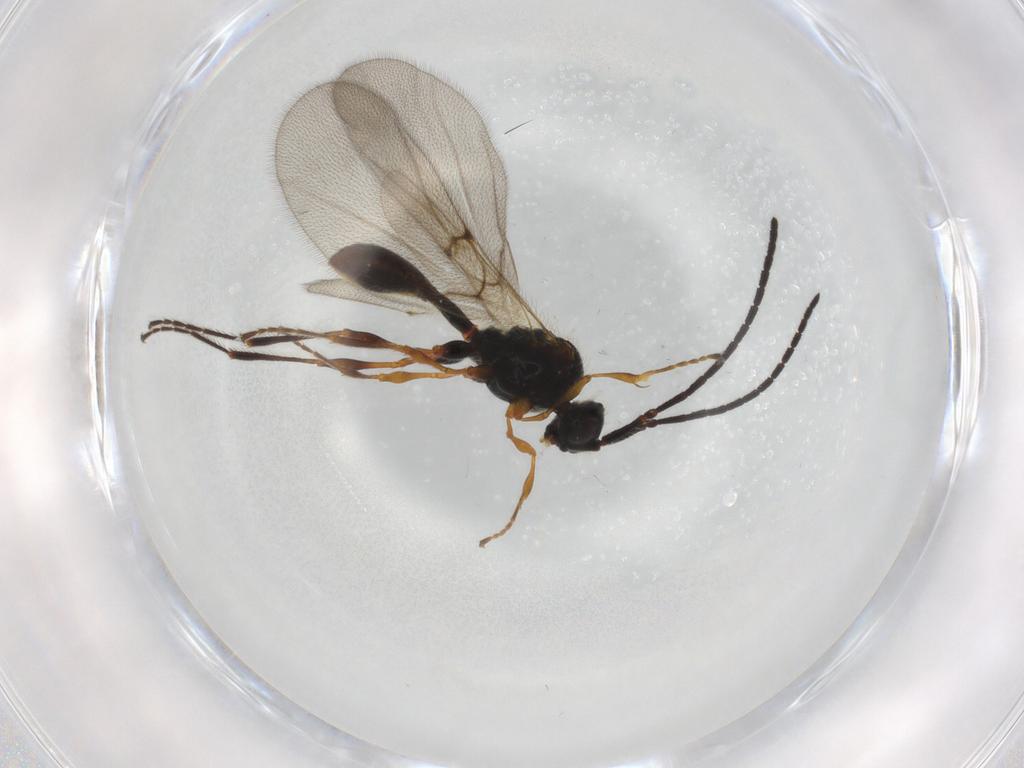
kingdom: Animalia
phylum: Arthropoda
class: Insecta
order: Hymenoptera
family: Diapriidae
